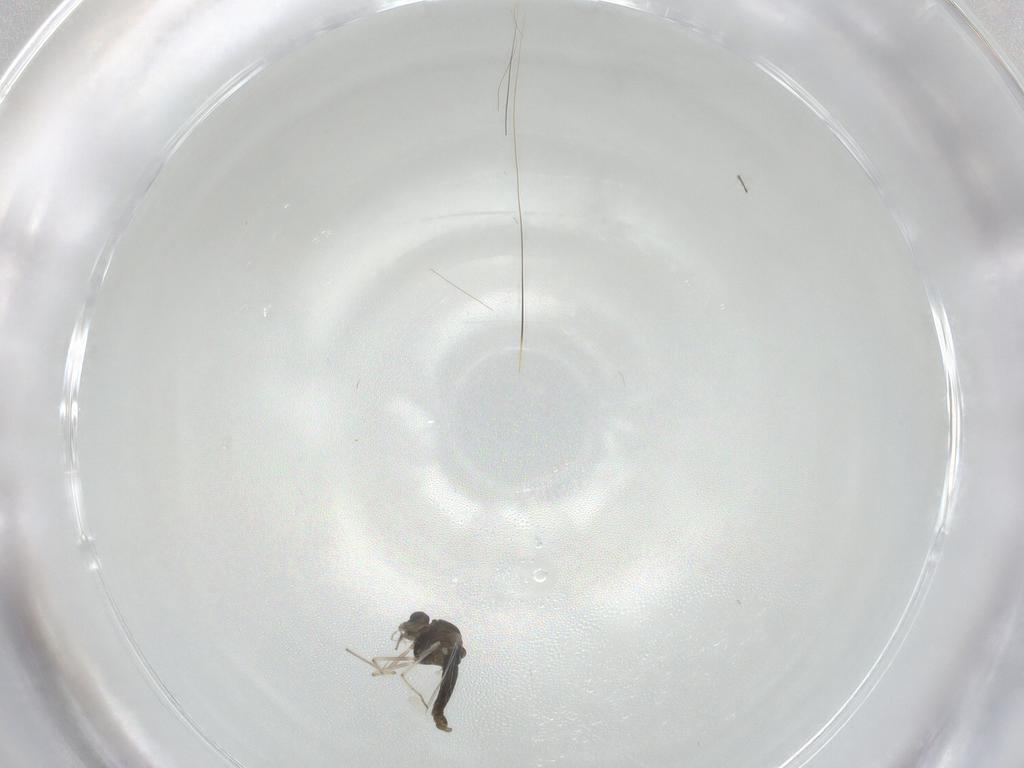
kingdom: Animalia
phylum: Arthropoda
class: Insecta
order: Diptera
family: Chironomidae
